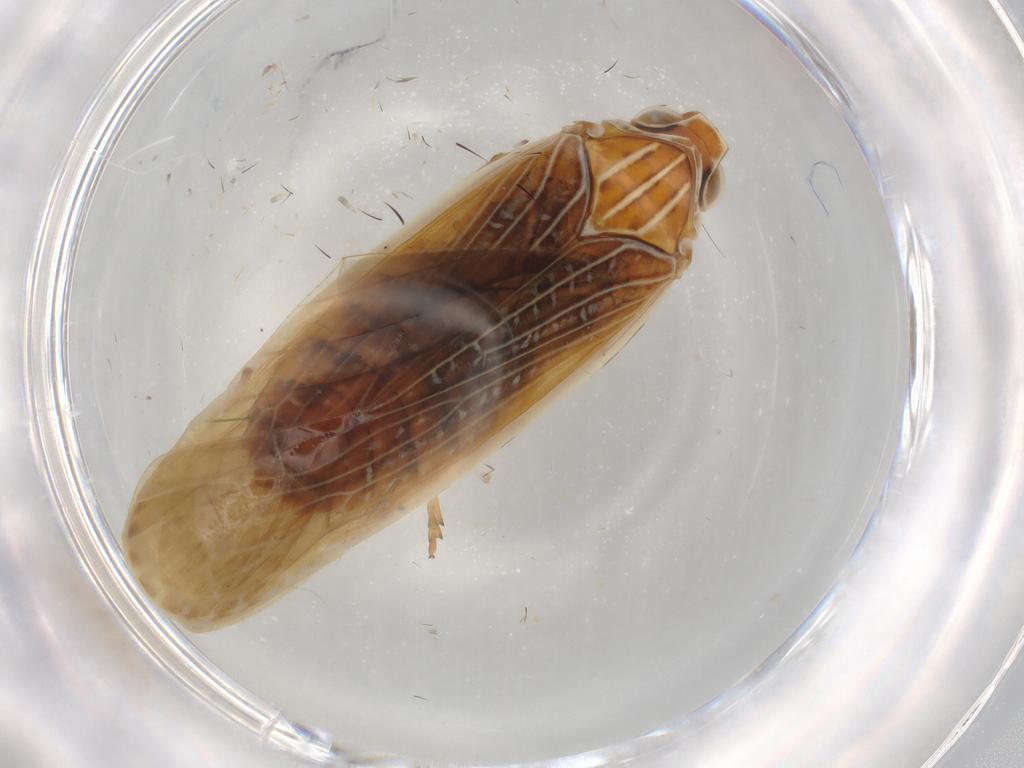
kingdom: Animalia
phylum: Arthropoda
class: Insecta
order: Hemiptera
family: Achilidae
